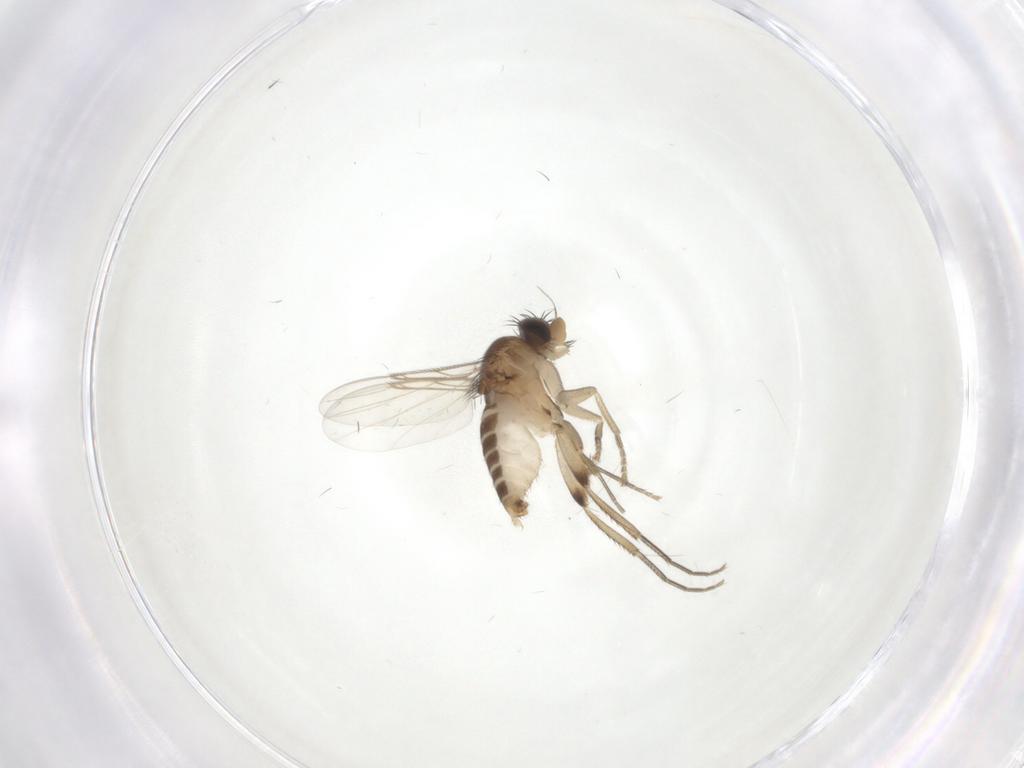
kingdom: Animalia
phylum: Arthropoda
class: Insecta
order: Diptera
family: Phoridae
